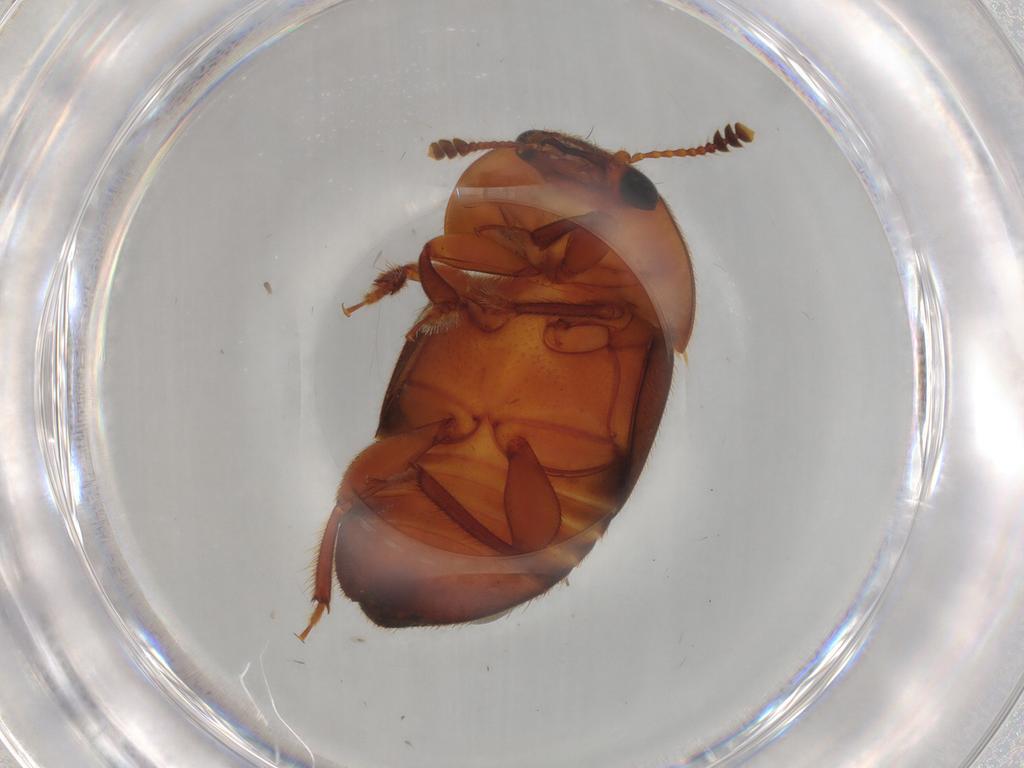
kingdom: Animalia
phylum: Arthropoda
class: Insecta
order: Coleoptera
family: Nitidulidae
